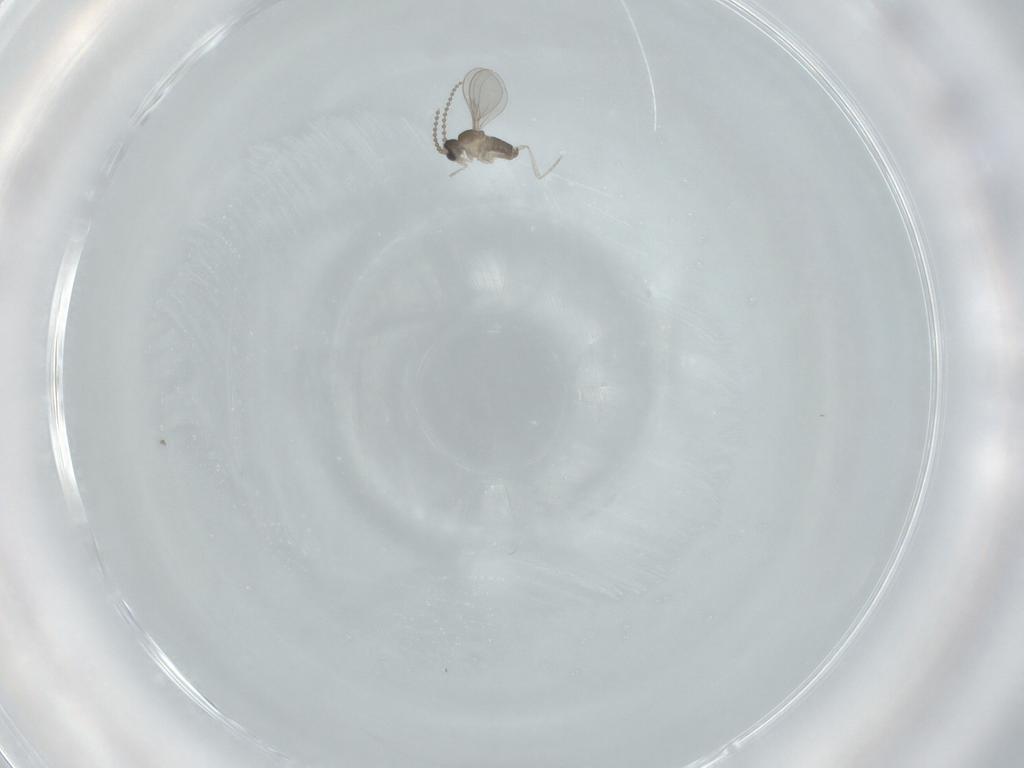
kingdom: Animalia
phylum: Arthropoda
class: Insecta
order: Diptera
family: Cecidomyiidae
